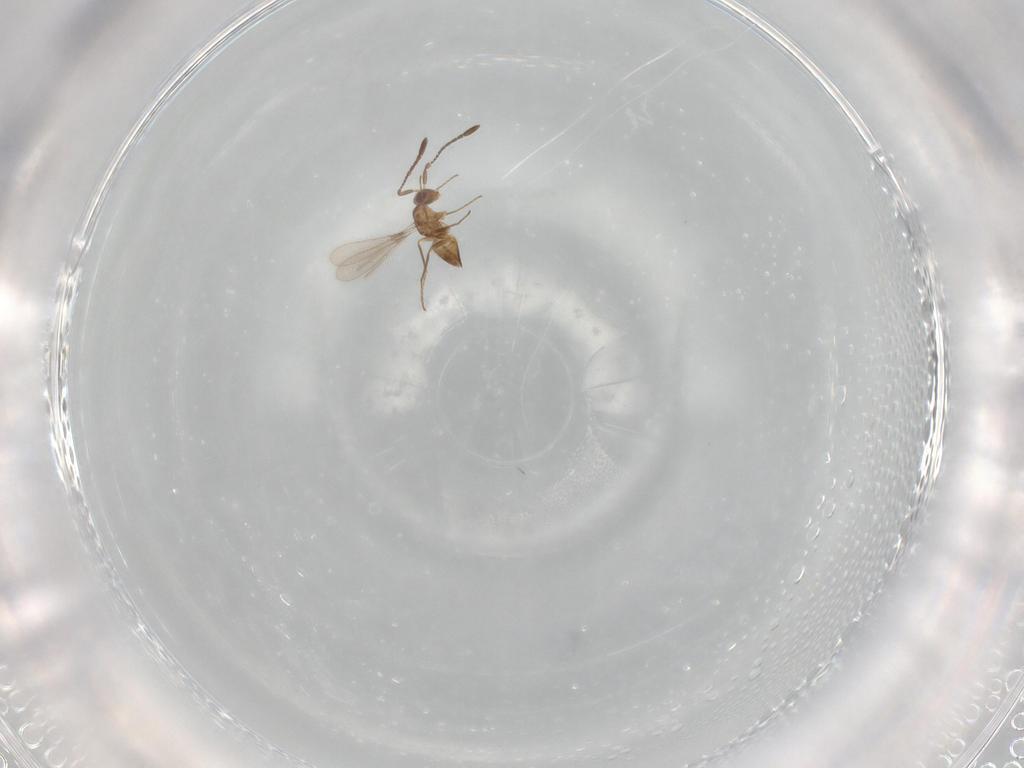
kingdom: Animalia
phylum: Arthropoda
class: Insecta
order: Hymenoptera
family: Mymaridae
